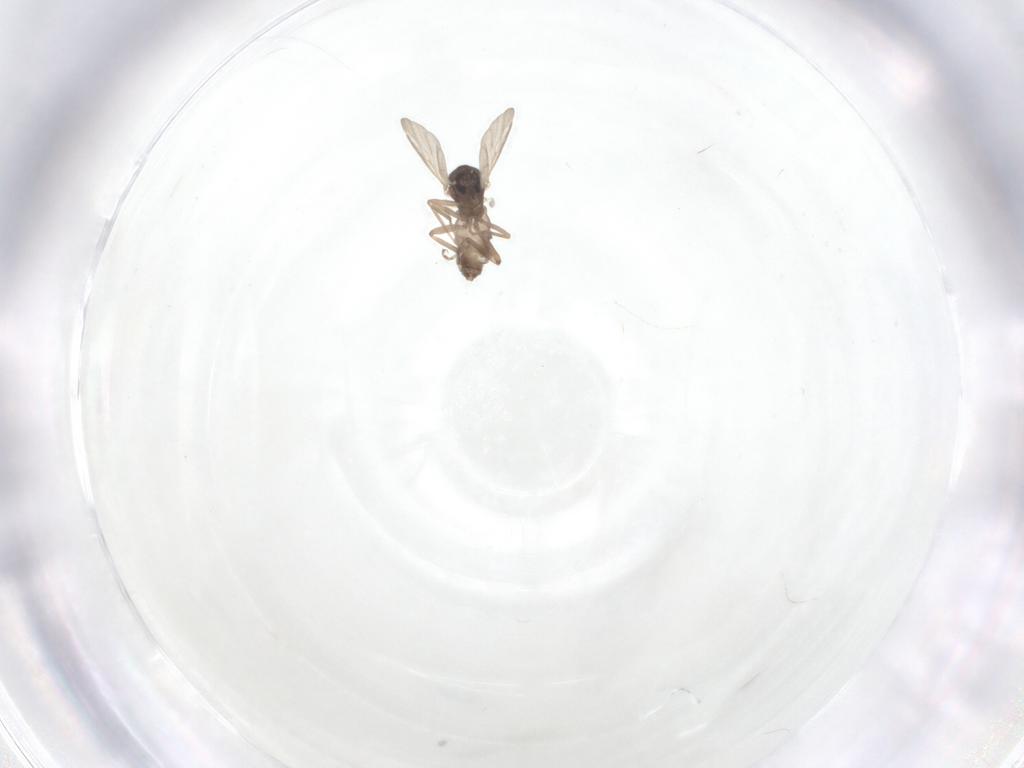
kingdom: Animalia
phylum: Arthropoda
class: Insecta
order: Diptera
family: Ceratopogonidae
